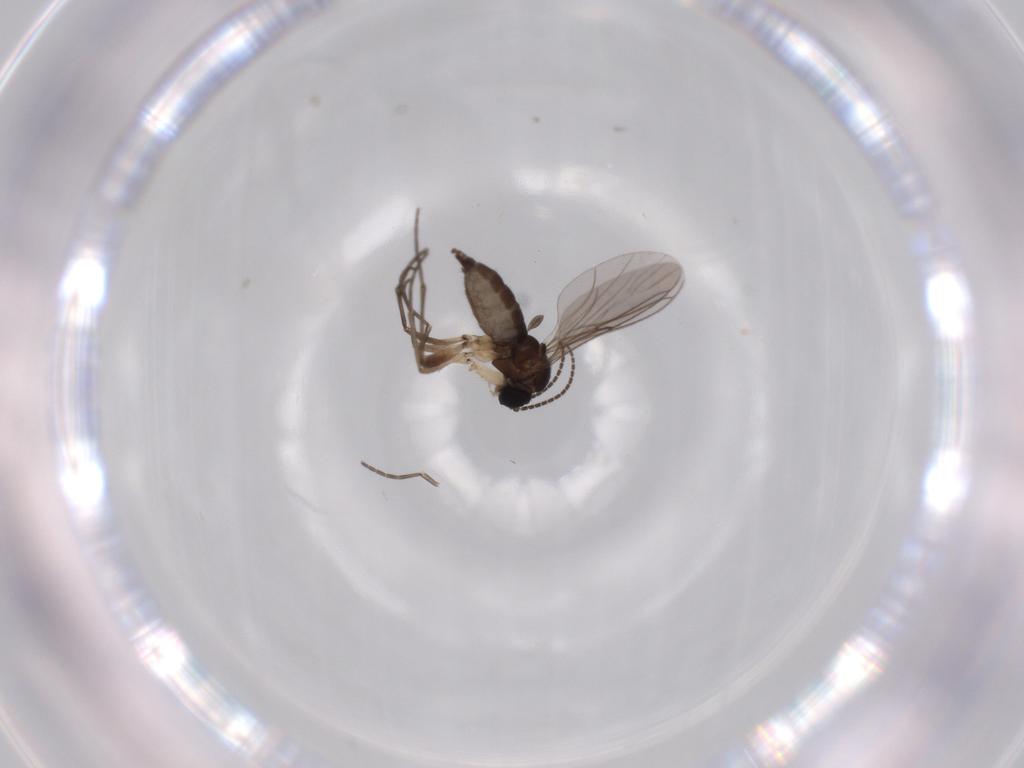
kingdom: Animalia
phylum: Arthropoda
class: Insecta
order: Diptera
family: Sciaridae
